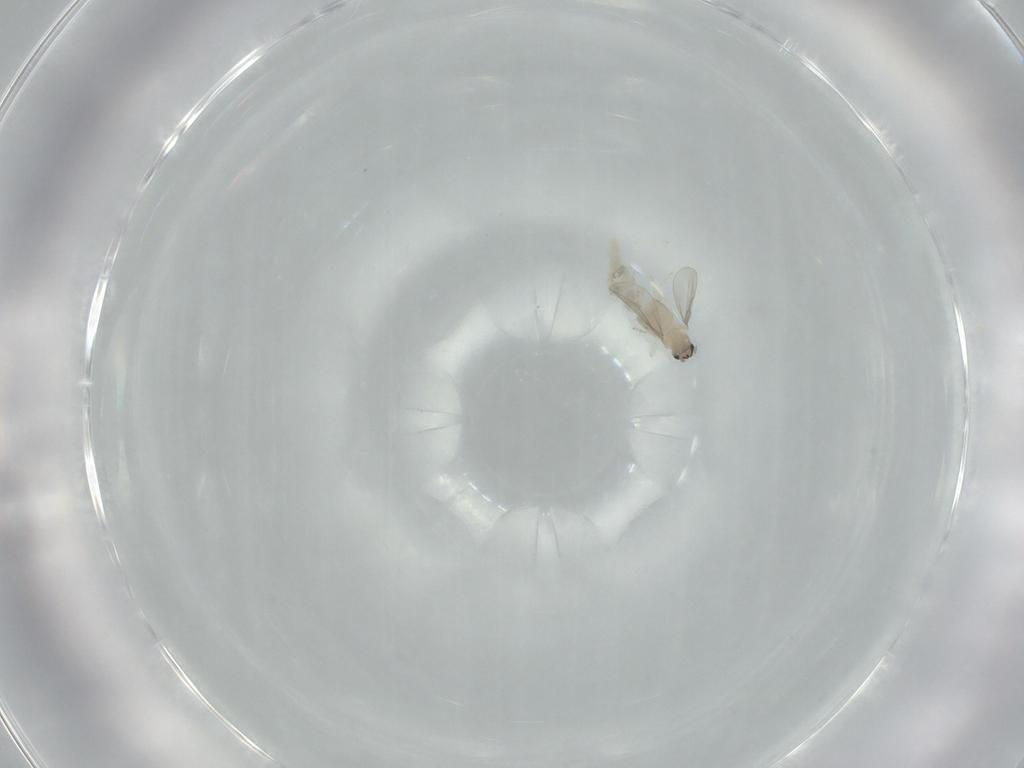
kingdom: Animalia
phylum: Arthropoda
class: Insecta
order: Diptera
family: Cecidomyiidae
